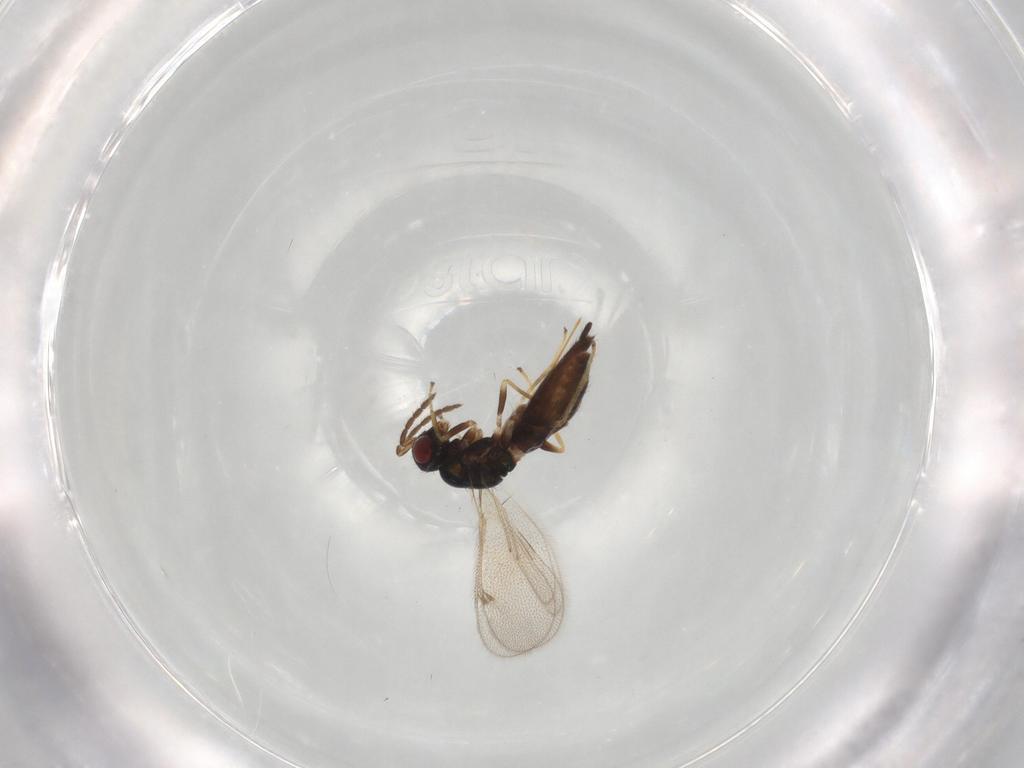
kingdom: Animalia
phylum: Arthropoda
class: Insecta
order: Hymenoptera
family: Eulophidae
